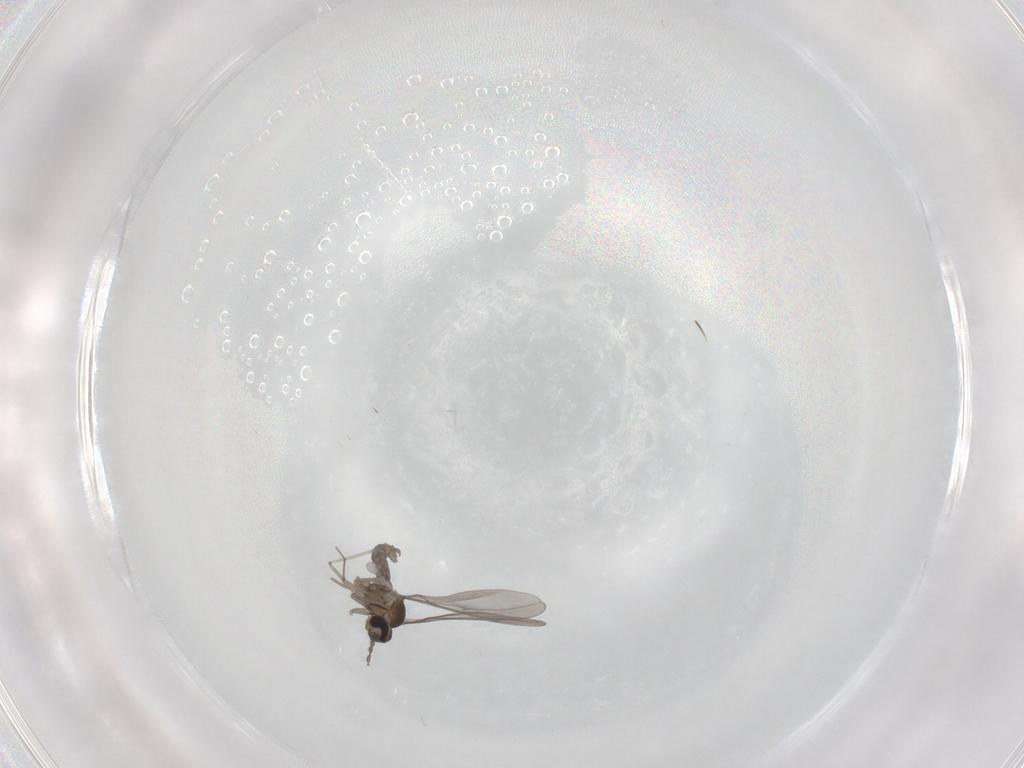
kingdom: Animalia
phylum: Arthropoda
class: Insecta
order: Diptera
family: Cecidomyiidae
